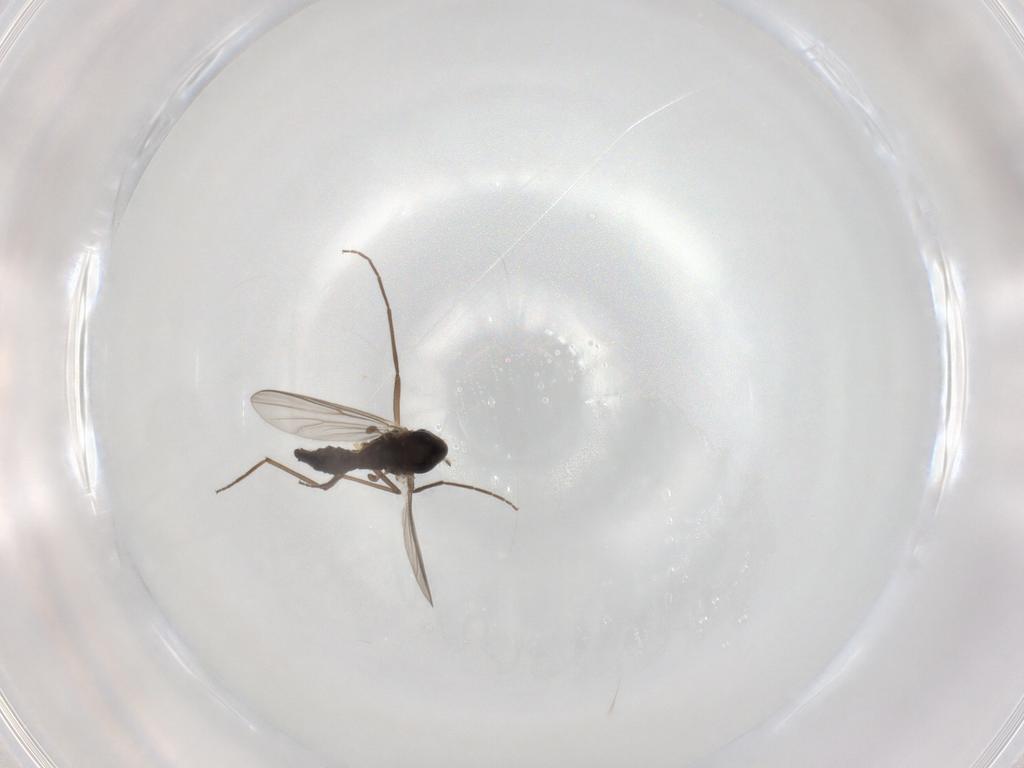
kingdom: Animalia
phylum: Arthropoda
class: Insecta
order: Diptera
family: Chironomidae
